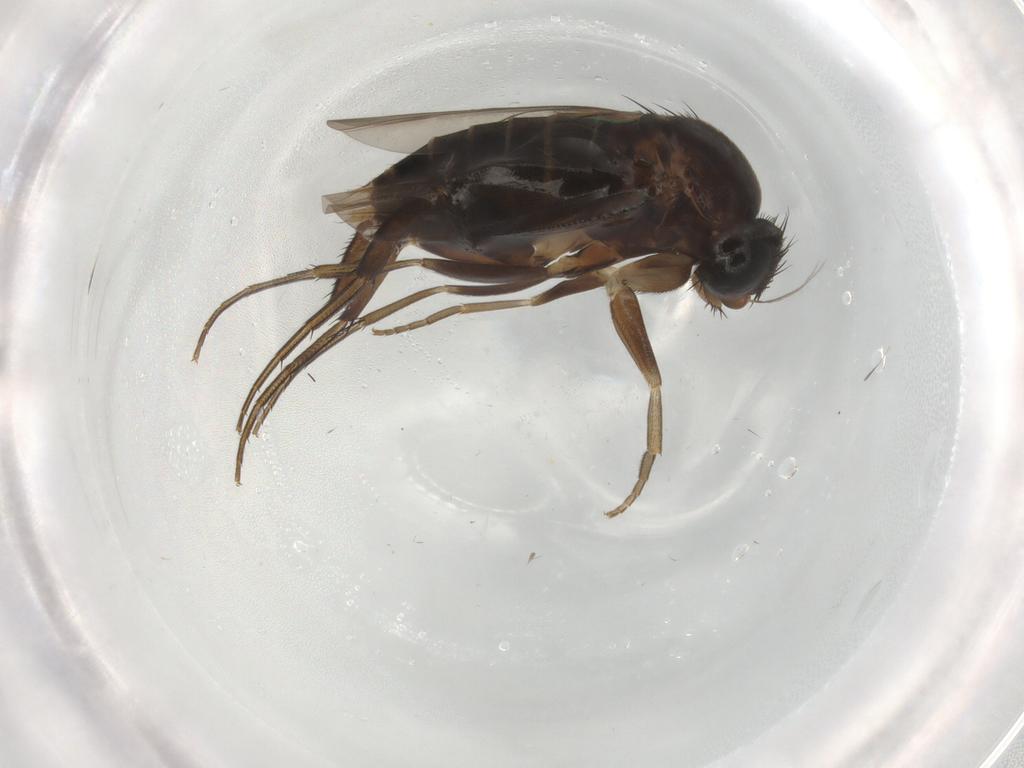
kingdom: Animalia
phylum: Arthropoda
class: Insecta
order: Diptera
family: Phoridae
